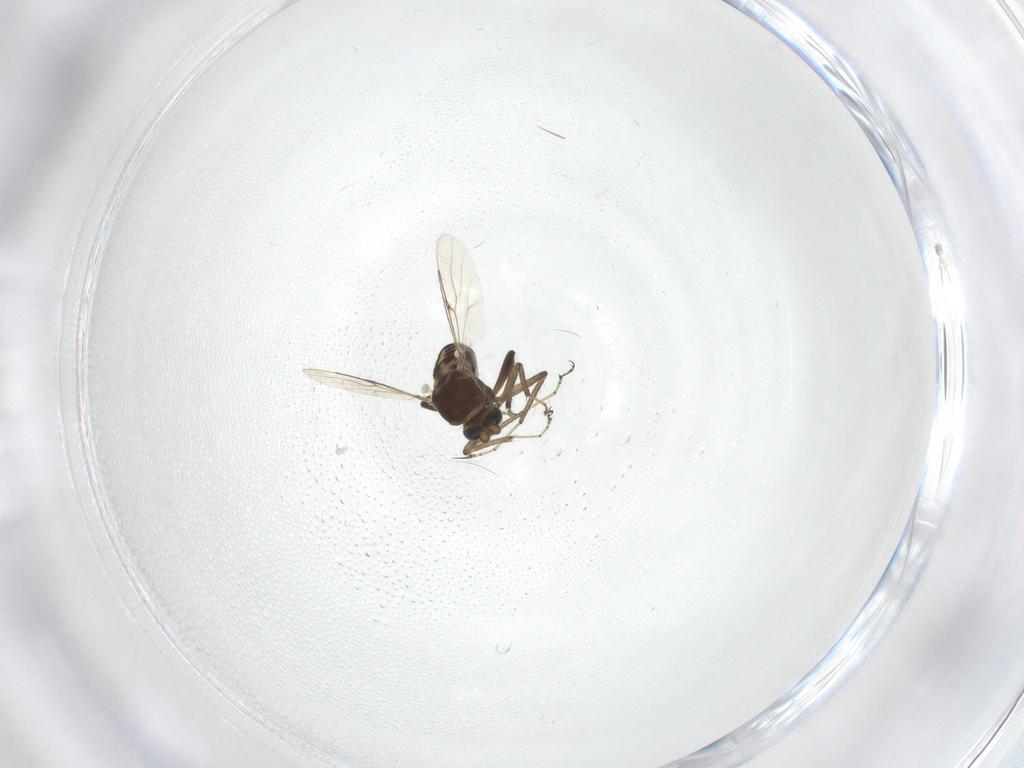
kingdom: Animalia
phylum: Arthropoda
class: Insecta
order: Diptera
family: Ceratopogonidae
